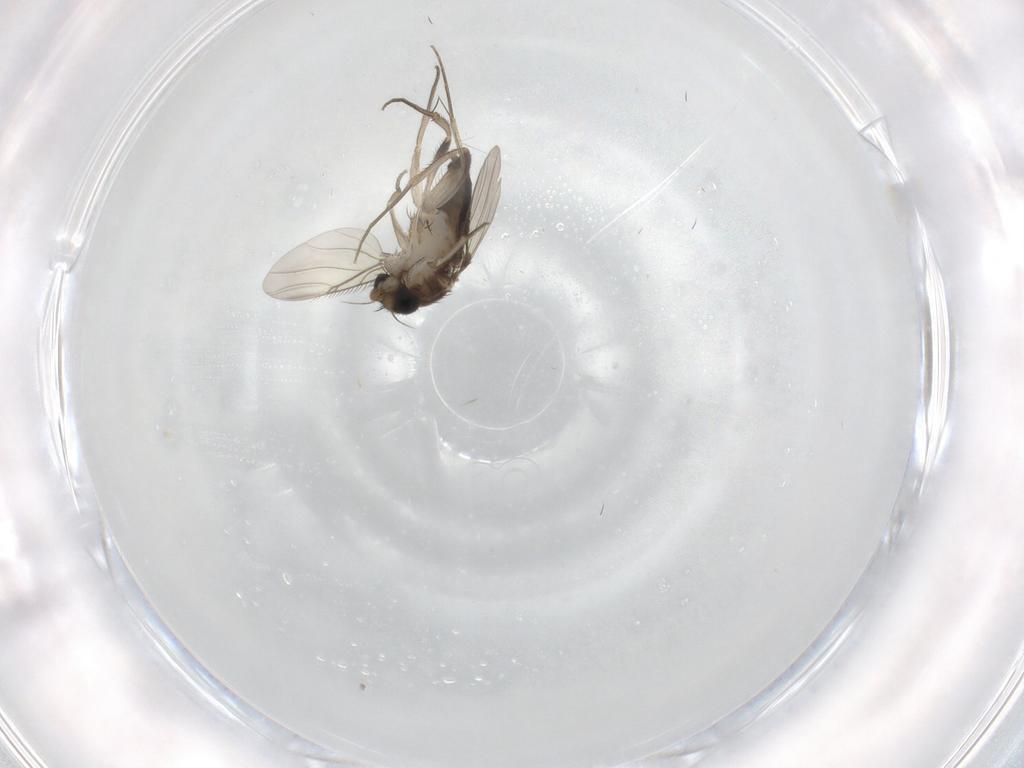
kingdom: Animalia
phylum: Arthropoda
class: Insecta
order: Diptera
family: Phoridae
